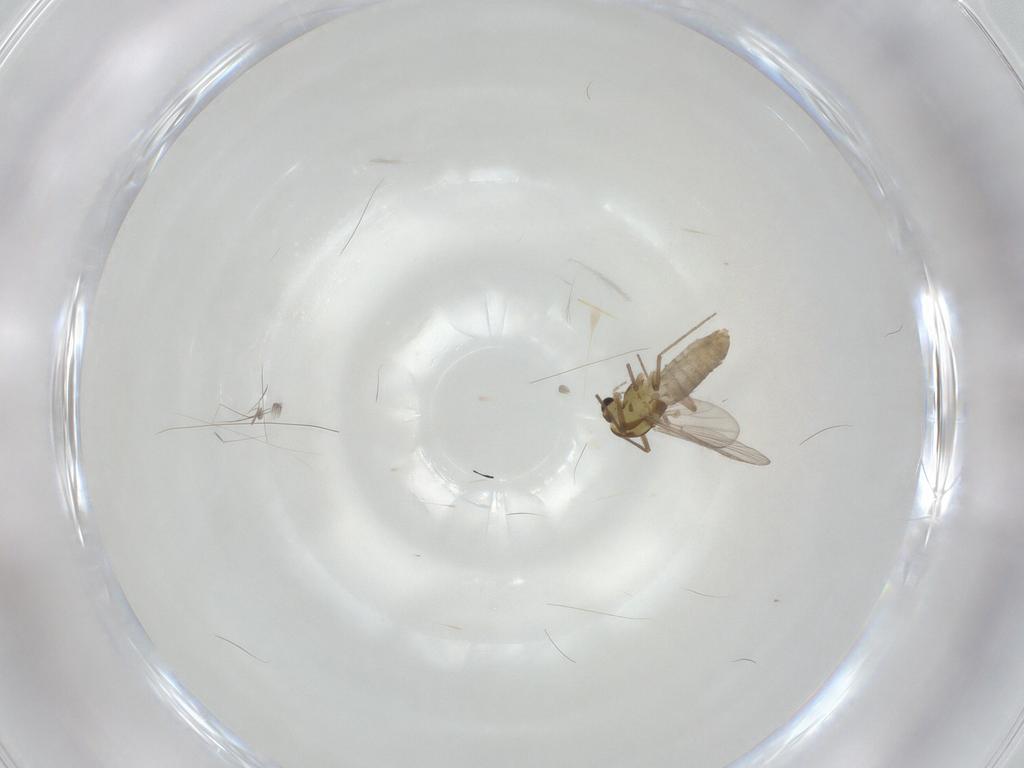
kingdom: Animalia
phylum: Arthropoda
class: Insecta
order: Diptera
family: Chironomidae
